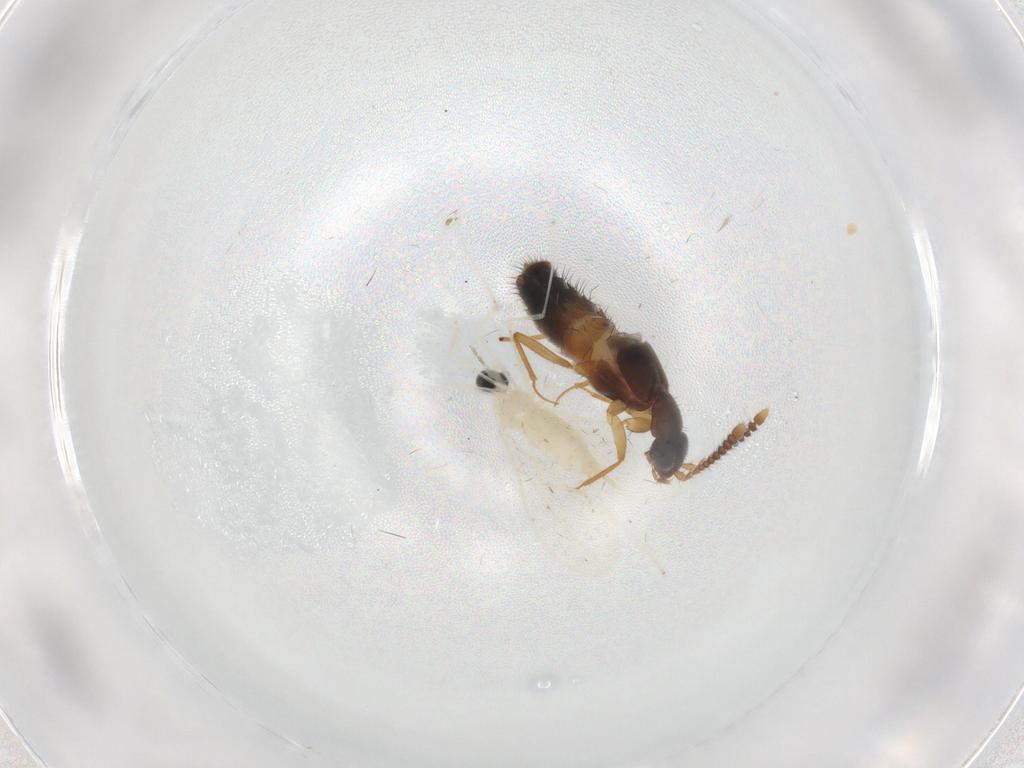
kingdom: Animalia
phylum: Arthropoda
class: Insecta
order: Diptera
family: Cecidomyiidae
